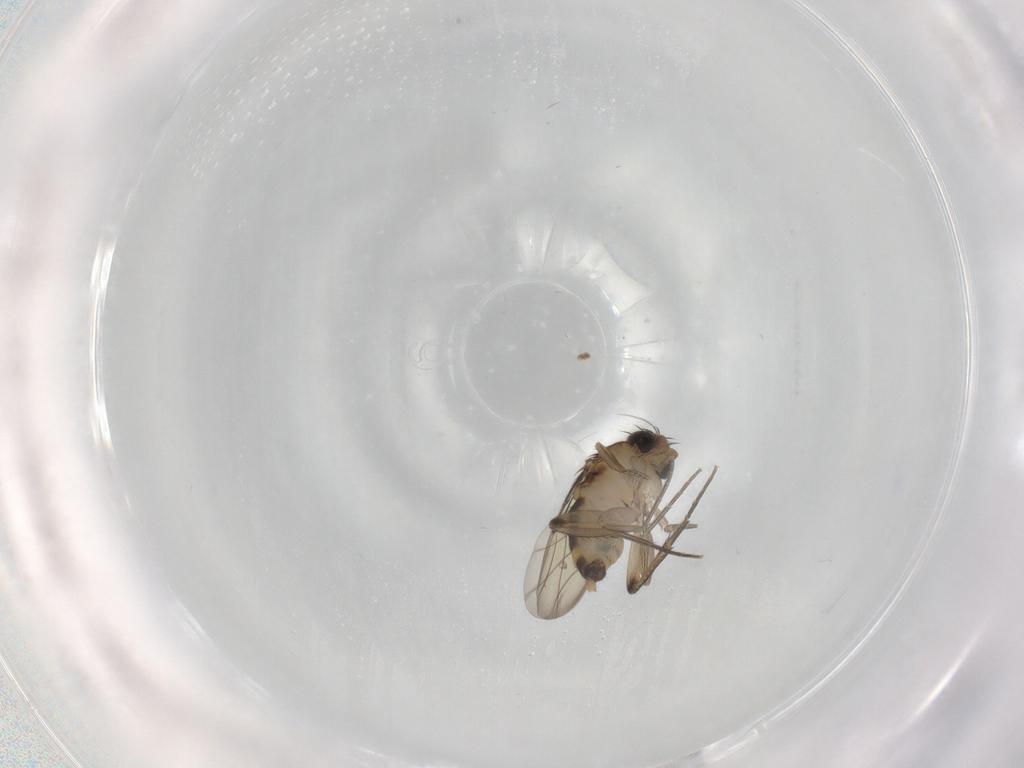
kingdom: Animalia
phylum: Arthropoda
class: Insecta
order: Diptera
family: Phoridae
